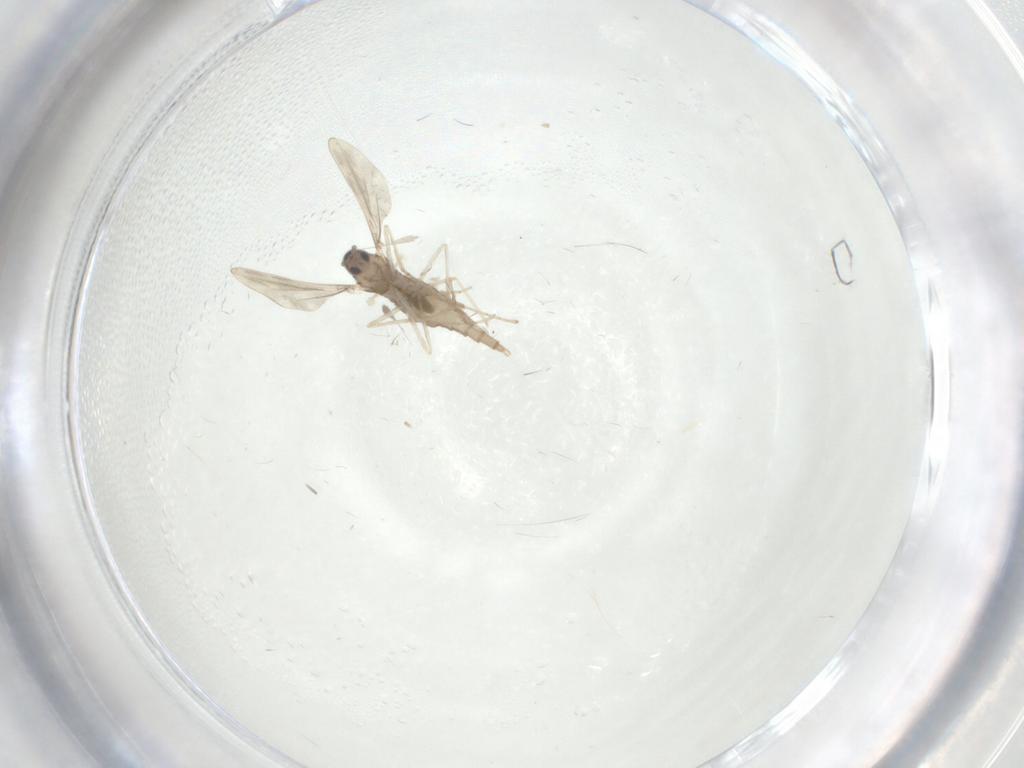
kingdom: Animalia
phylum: Arthropoda
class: Insecta
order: Diptera
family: Cecidomyiidae
